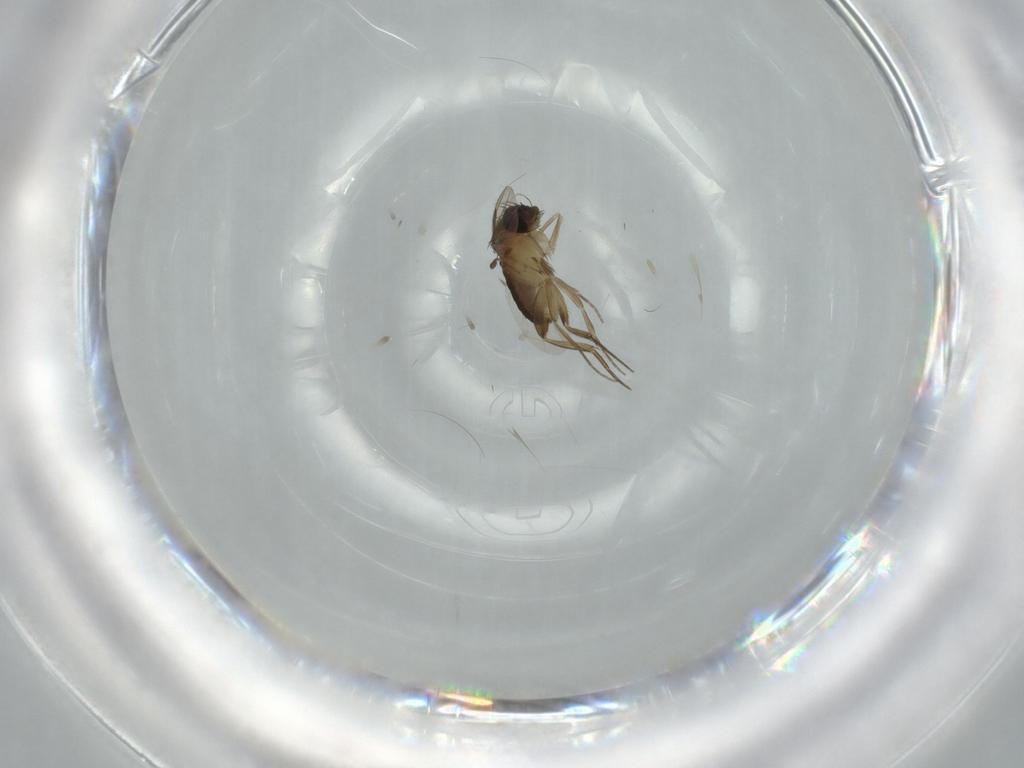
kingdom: Animalia
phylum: Arthropoda
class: Insecta
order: Diptera
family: Phoridae
